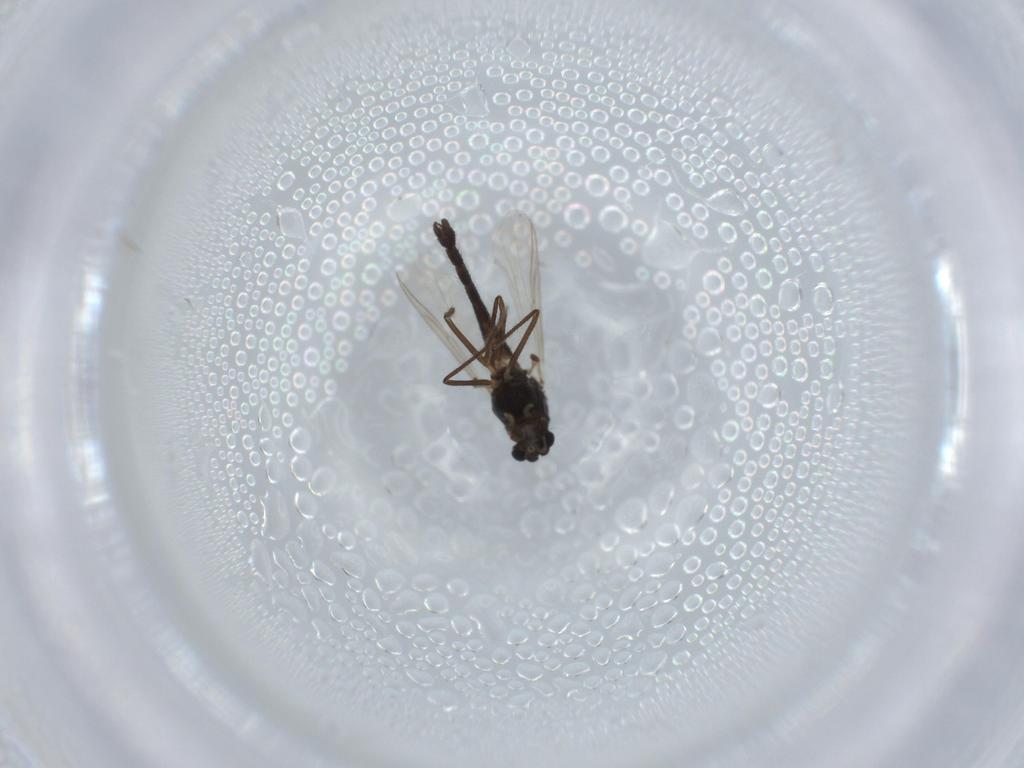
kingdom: Animalia
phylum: Arthropoda
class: Insecta
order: Diptera
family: Chironomidae
